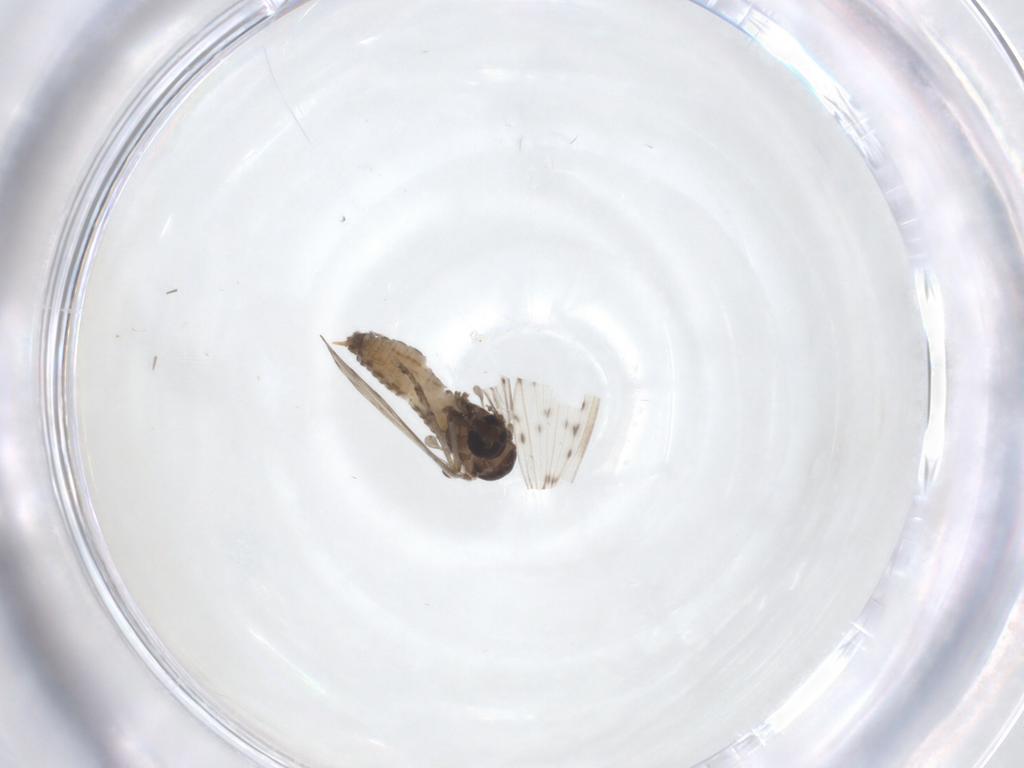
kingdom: Animalia
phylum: Arthropoda
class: Insecta
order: Diptera
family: Psychodidae
